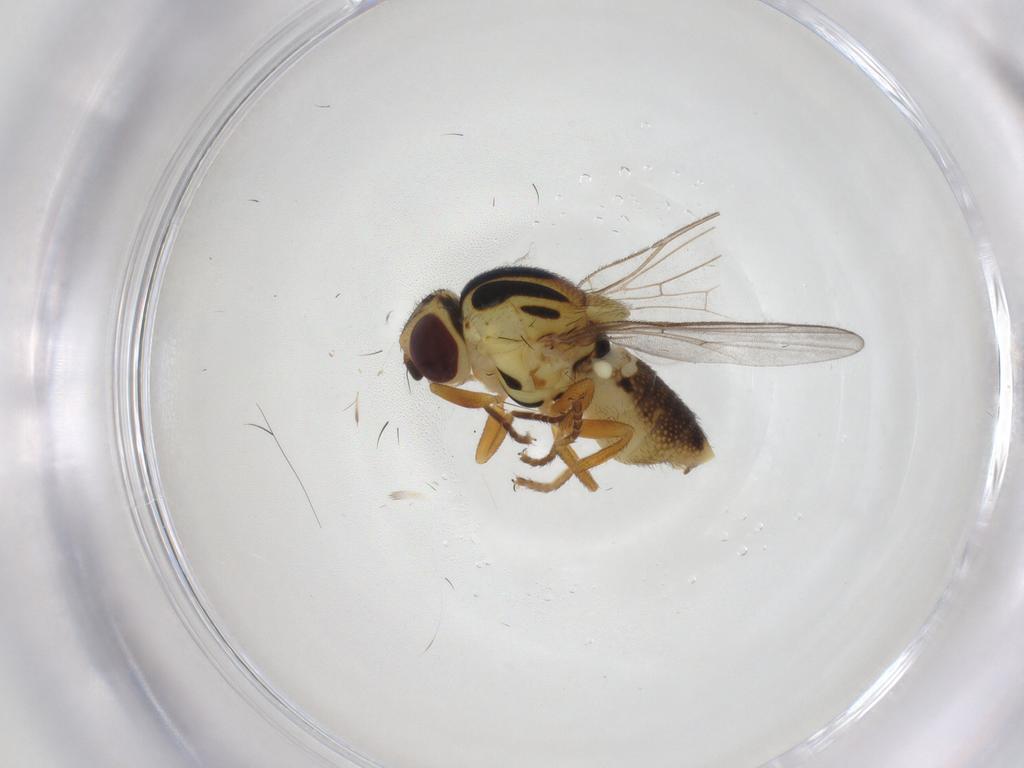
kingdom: Animalia
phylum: Arthropoda
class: Insecta
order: Diptera
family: Chloropidae
